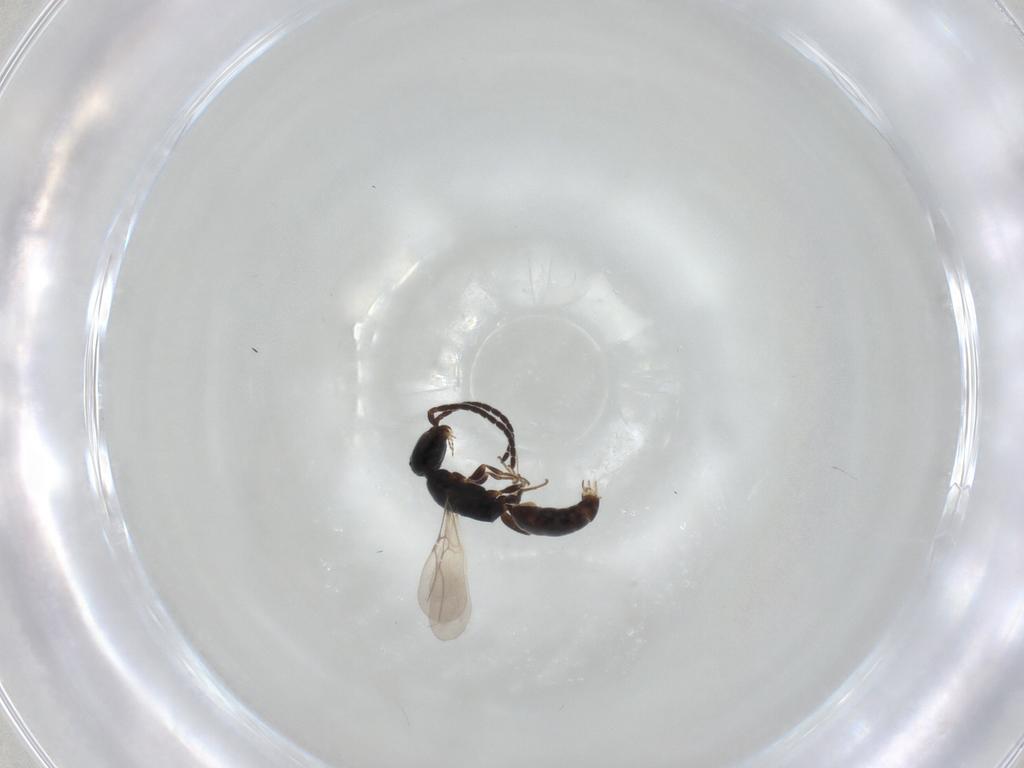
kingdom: Animalia
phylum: Arthropoda
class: Insecta
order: Hymenoptera
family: Bethylidae
